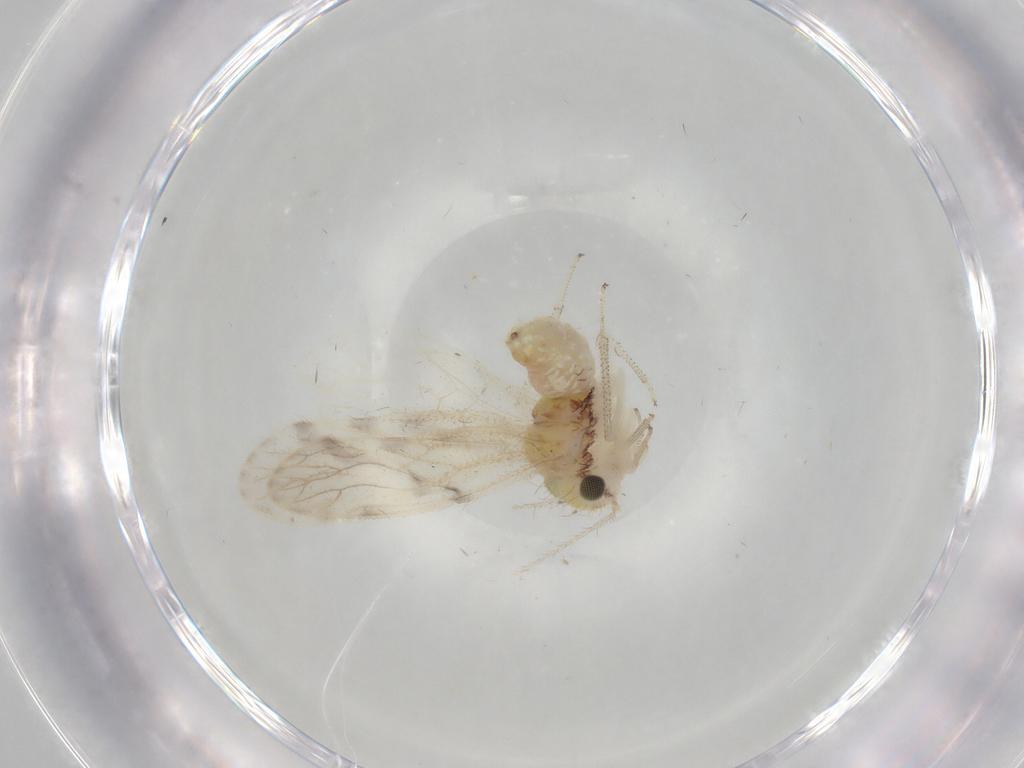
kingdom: Animalia
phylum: Arthropoda
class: Insecta
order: Psocodea
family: Pseudocaeciliidae
